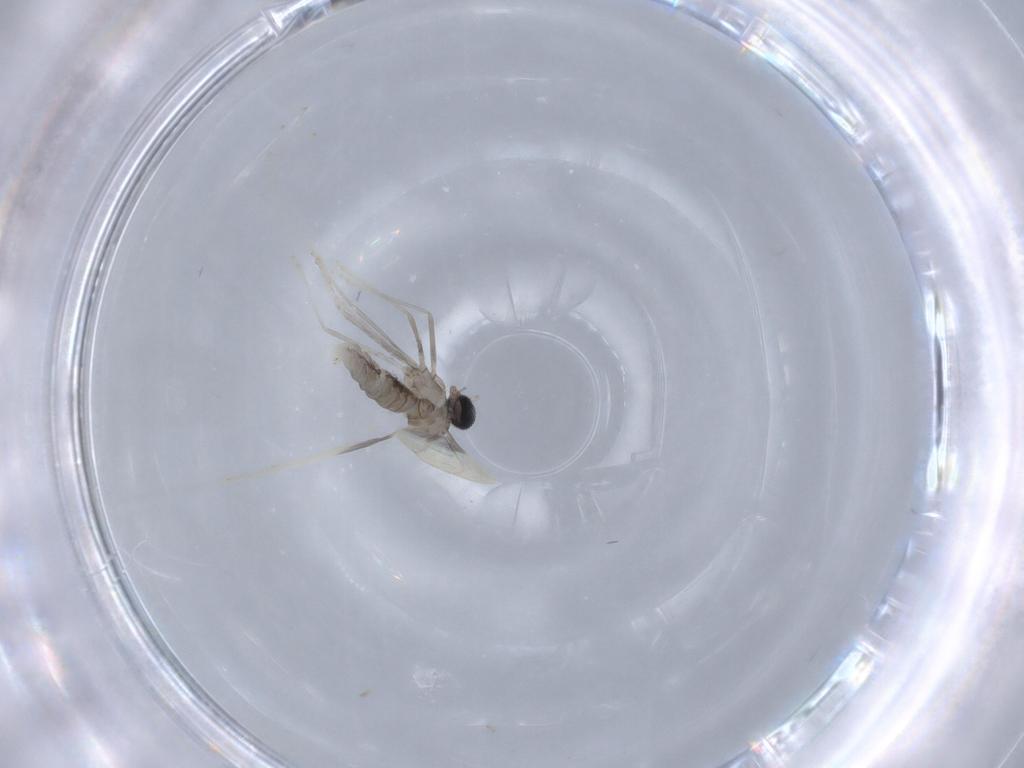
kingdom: Animalia
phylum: Arthropoda
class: Insecta
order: Diptera
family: Cecidomyiidae
